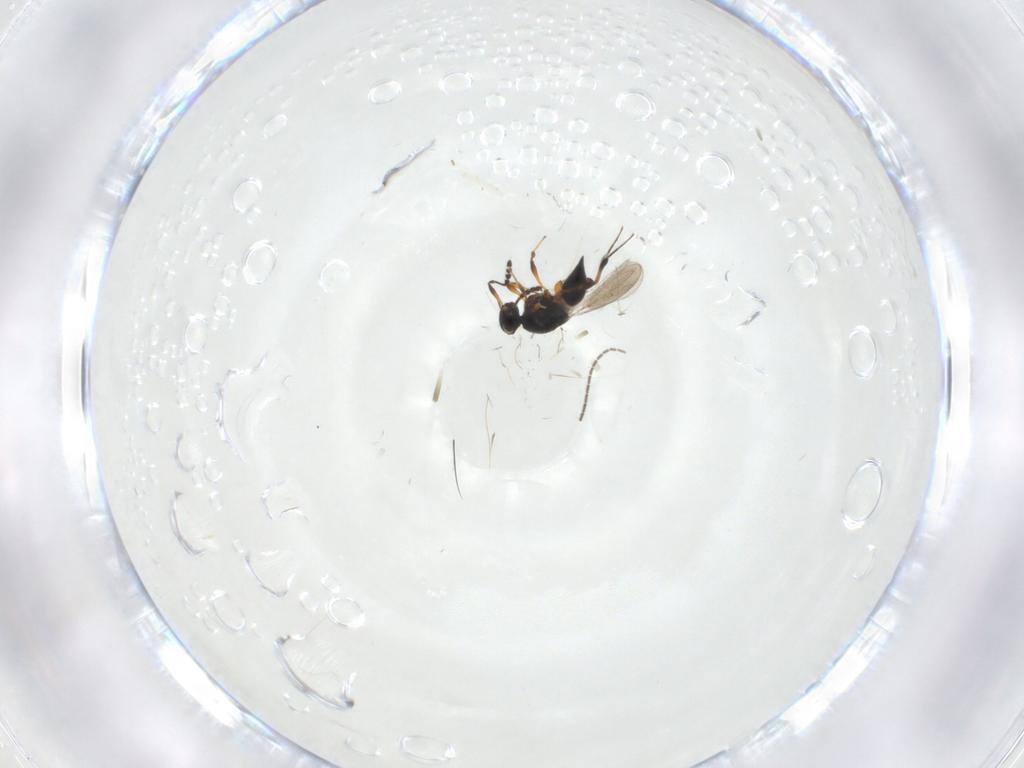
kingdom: Animalia
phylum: Arthropoda
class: Insecta
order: Hymenoptera
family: Platygastridae
